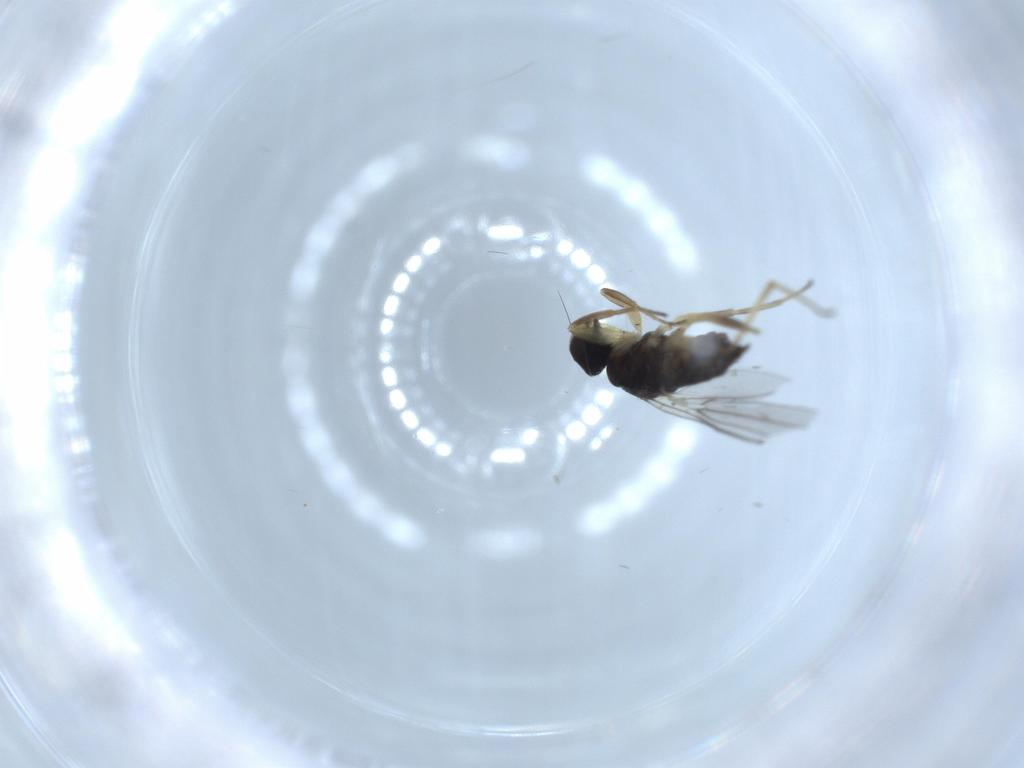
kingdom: Animalia
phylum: Arthropoda
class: Insecta
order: Diptera
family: Hybotidae
